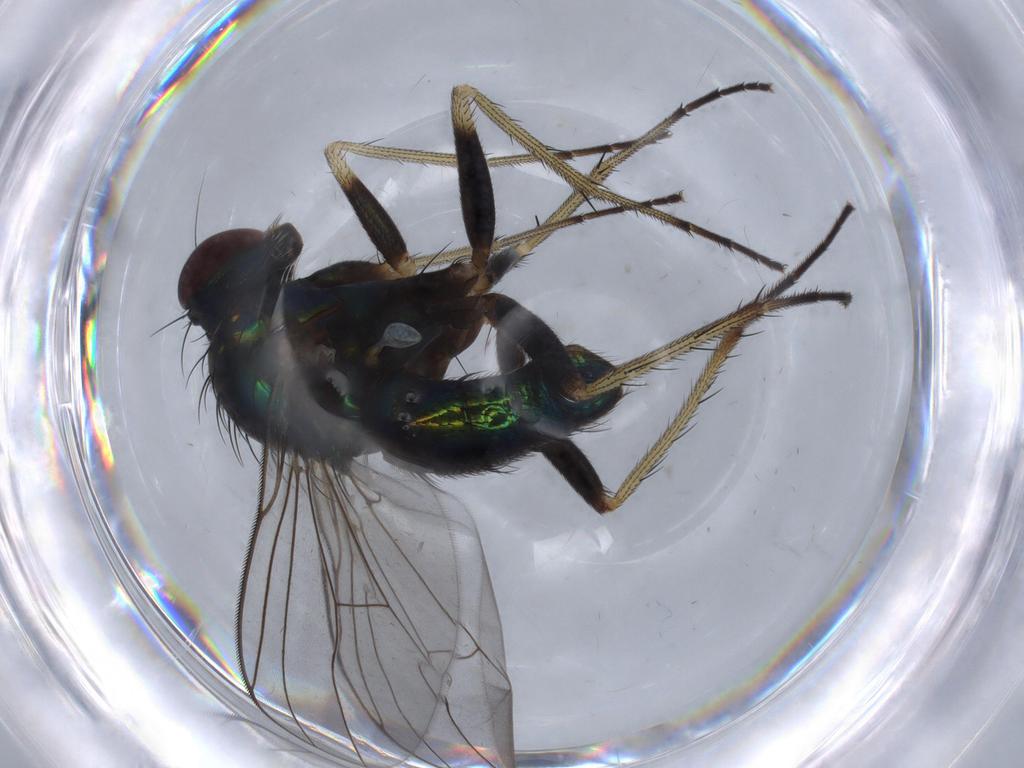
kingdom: Animalia
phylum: Arthropoda
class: Insecta
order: Diptera
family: Dolichopodidae
